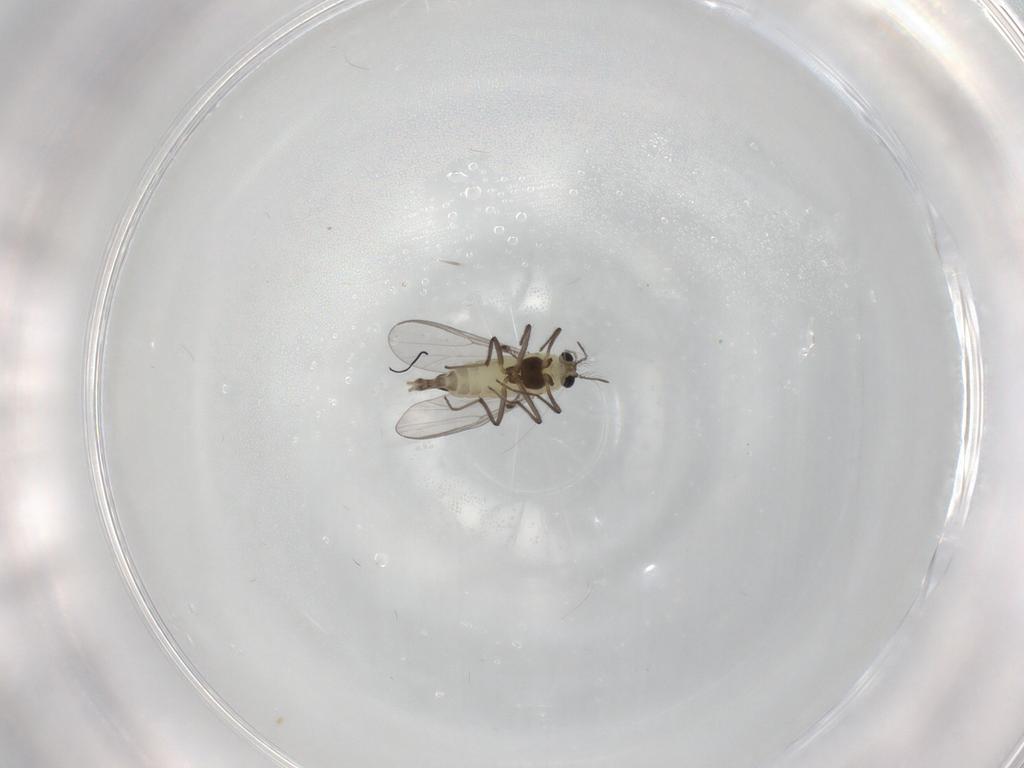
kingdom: Animalia
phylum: Arthropoda
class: Insecta
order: Diptera
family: Chironomidae
